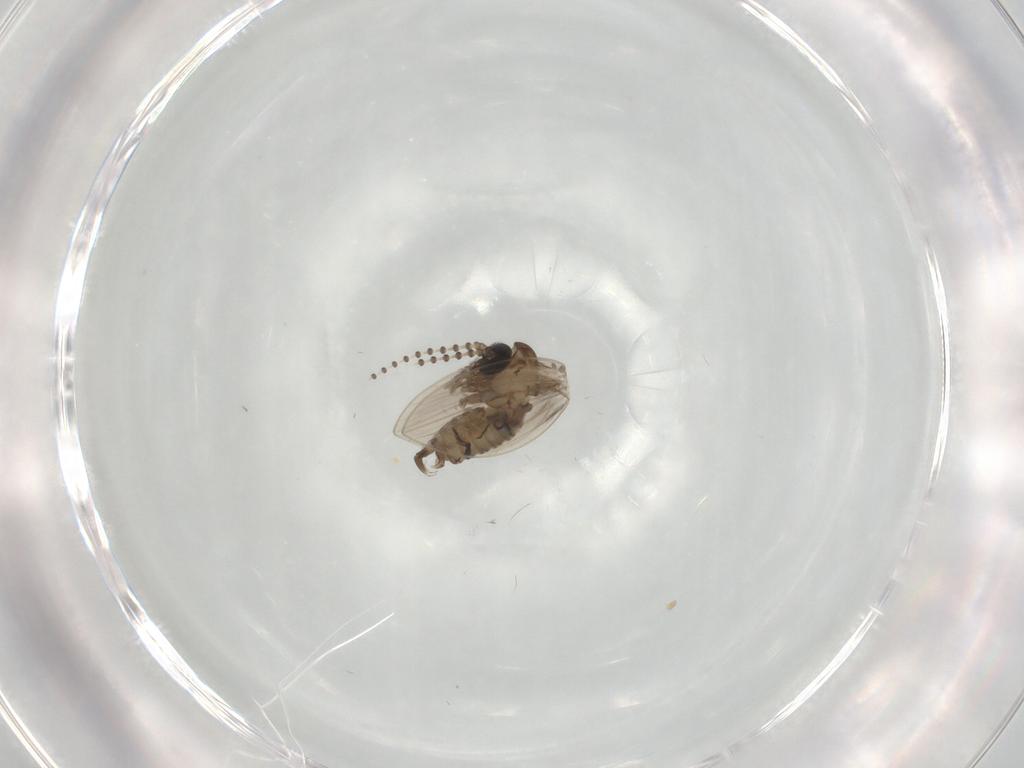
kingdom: Animalia
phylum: Arthropoda
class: Insecta
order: Diptera
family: Psychodidae
